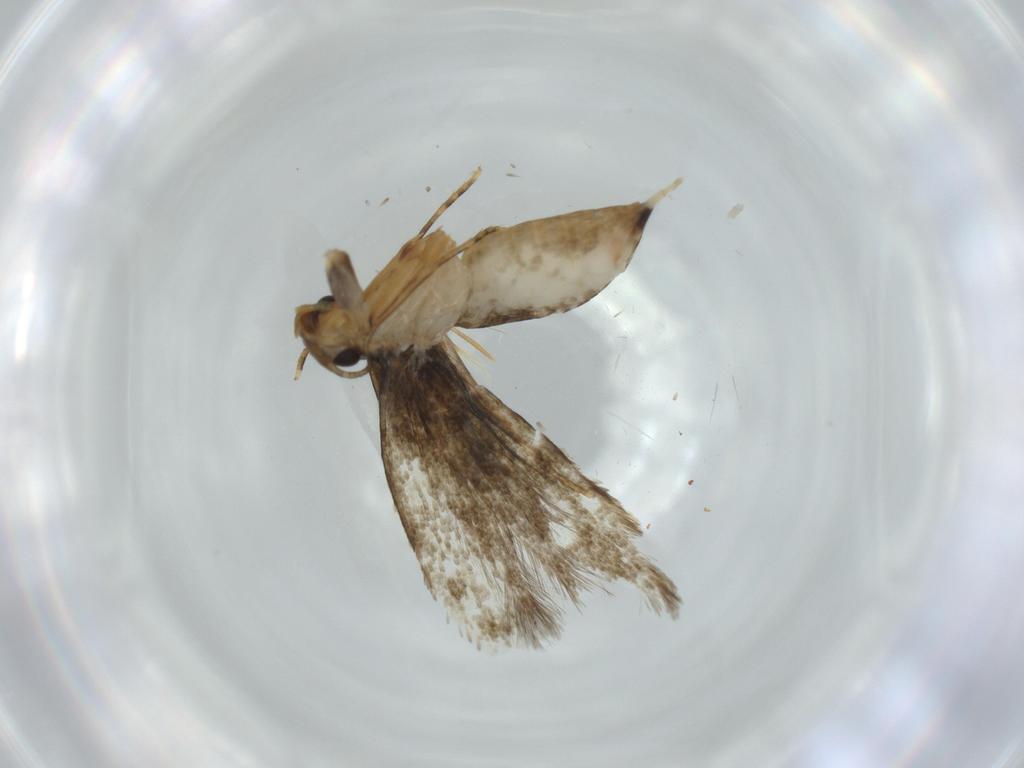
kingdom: Animalia
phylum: Arthropoda
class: Insecta
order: Lepidoptera
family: Tineidae
